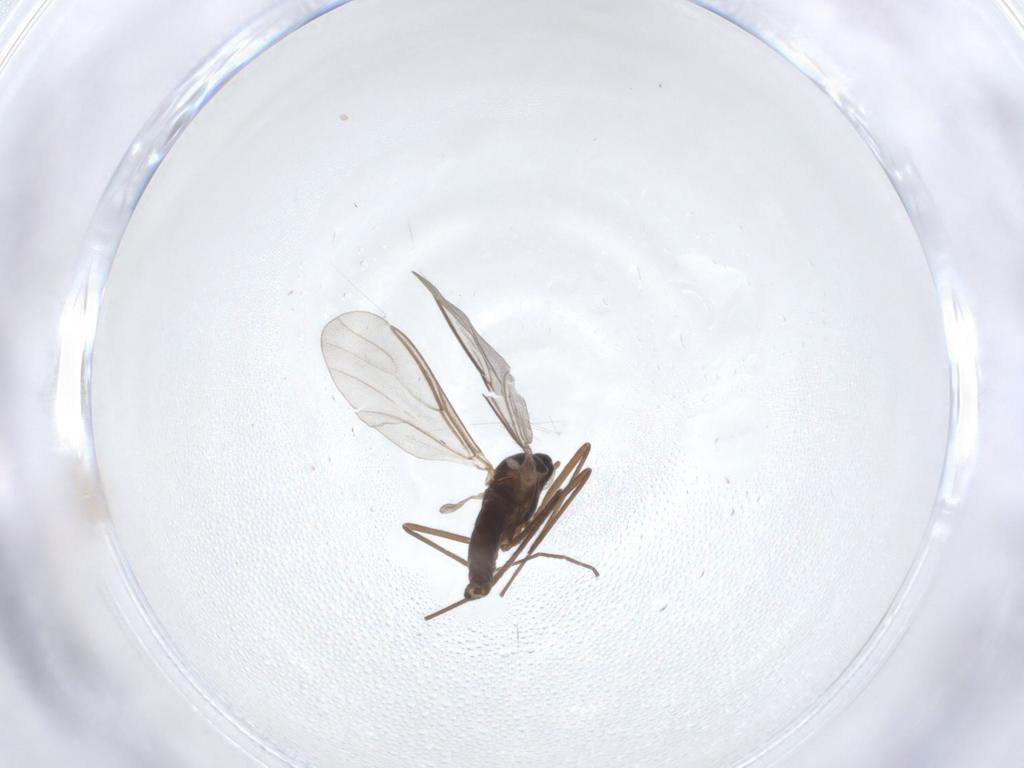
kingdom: Animalia
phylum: Arthropoda
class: Insecta
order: Diptera
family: Cecidomyiidae
